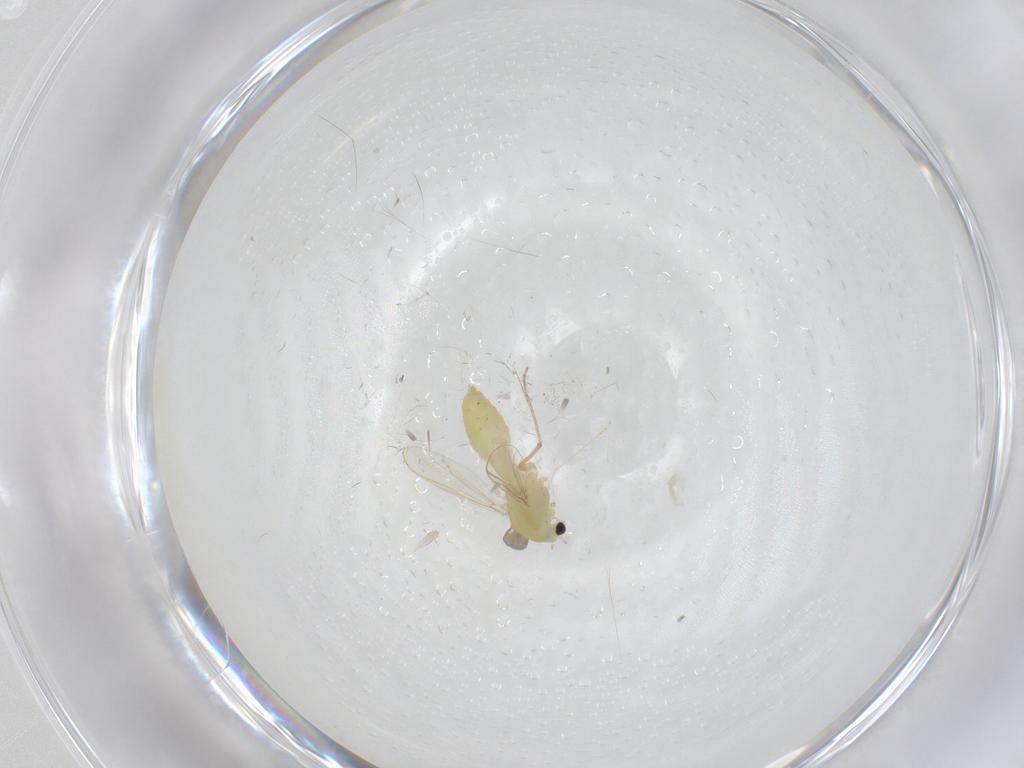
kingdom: Animalia
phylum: Arthropoda
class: Insecta
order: Diptera
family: Chironomidae
